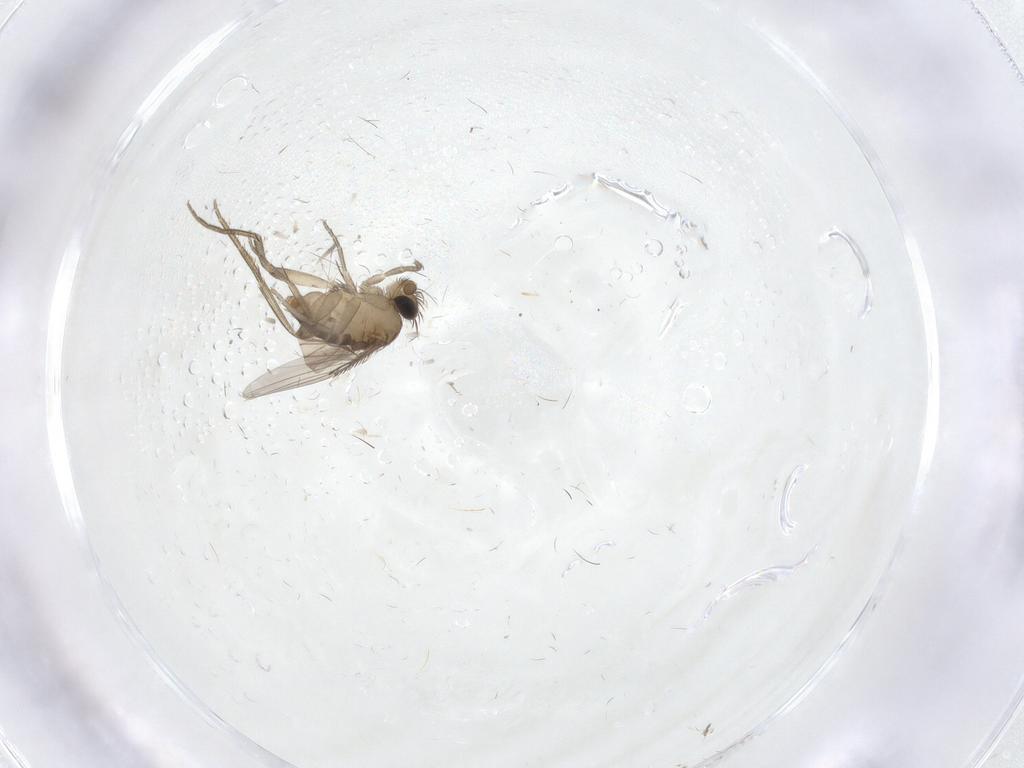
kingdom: Animalia
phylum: Arthropoda
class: Insecta
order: Diptera
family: Phoridae
